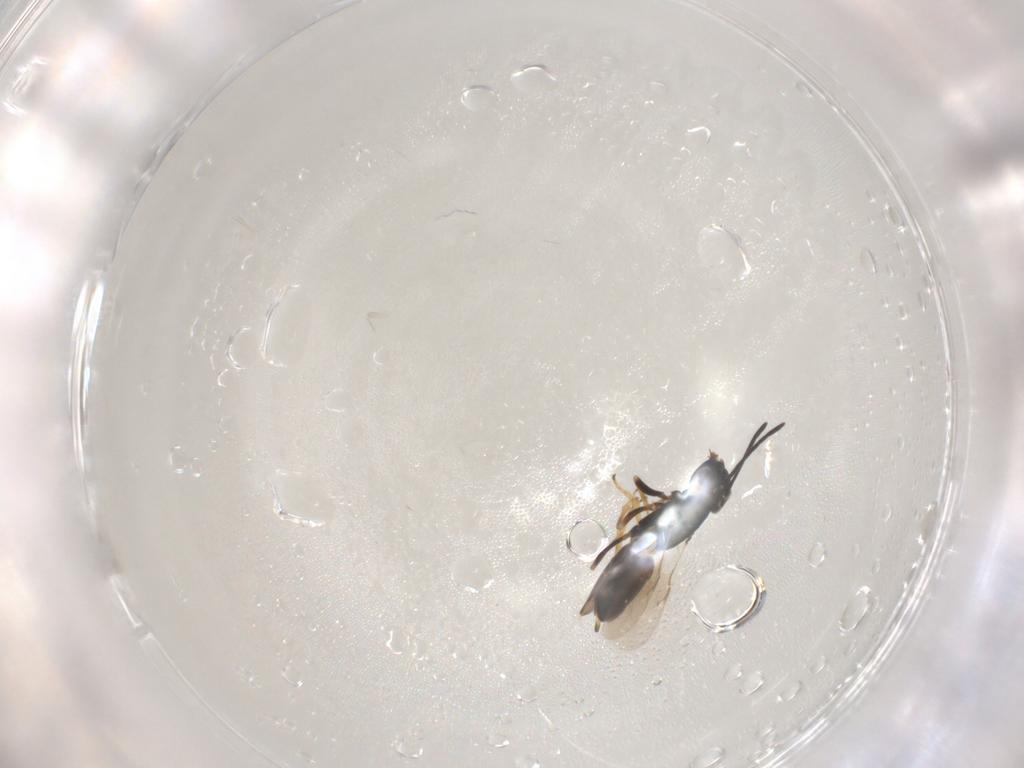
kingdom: Animalia
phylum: Arthropoda
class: Insecta
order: Hymenoptera
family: Encyrtidae
